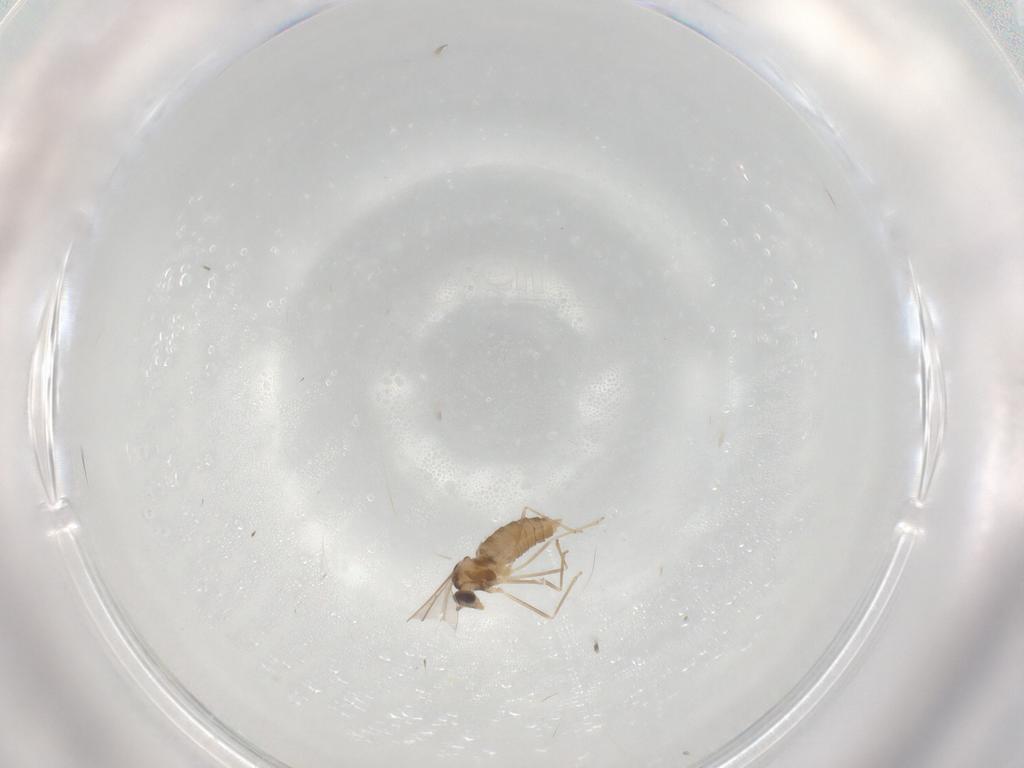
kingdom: Animalia
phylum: Arthropoda
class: Insecta
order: Diptera
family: Cecidomyiidae
